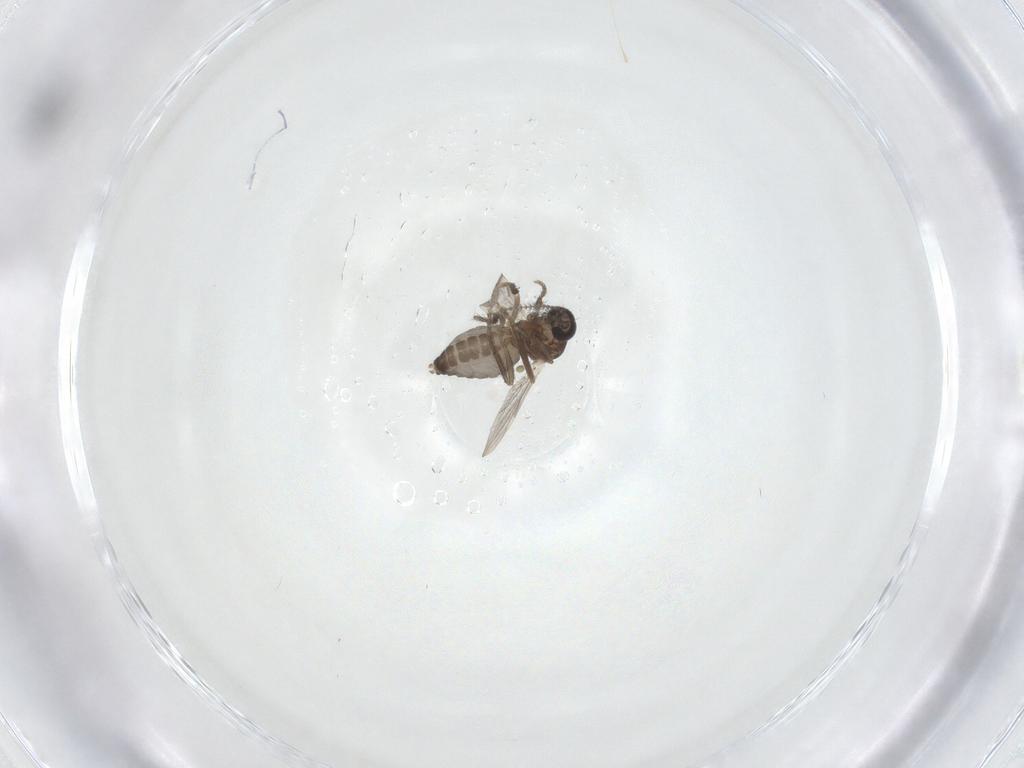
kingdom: Animalia
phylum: Arthropoda
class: Insecta
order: Diptera
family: Ceratopogonidae
